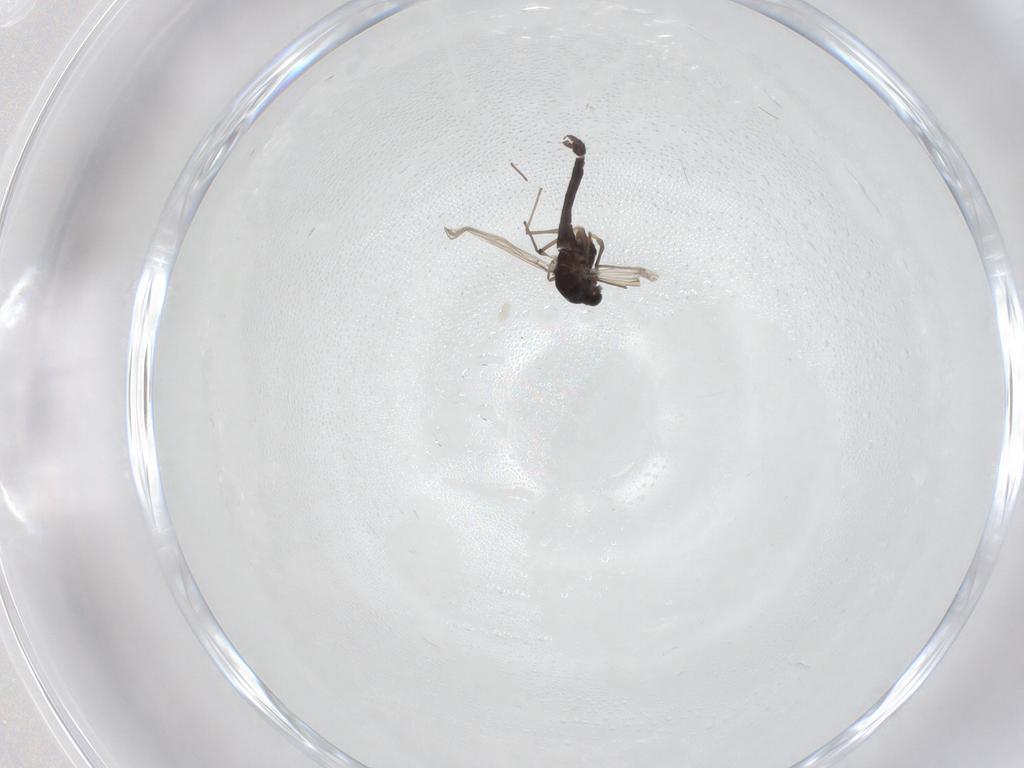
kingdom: Animalia
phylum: Arthropoda
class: Insecta
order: Diptera
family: Chironomidae
